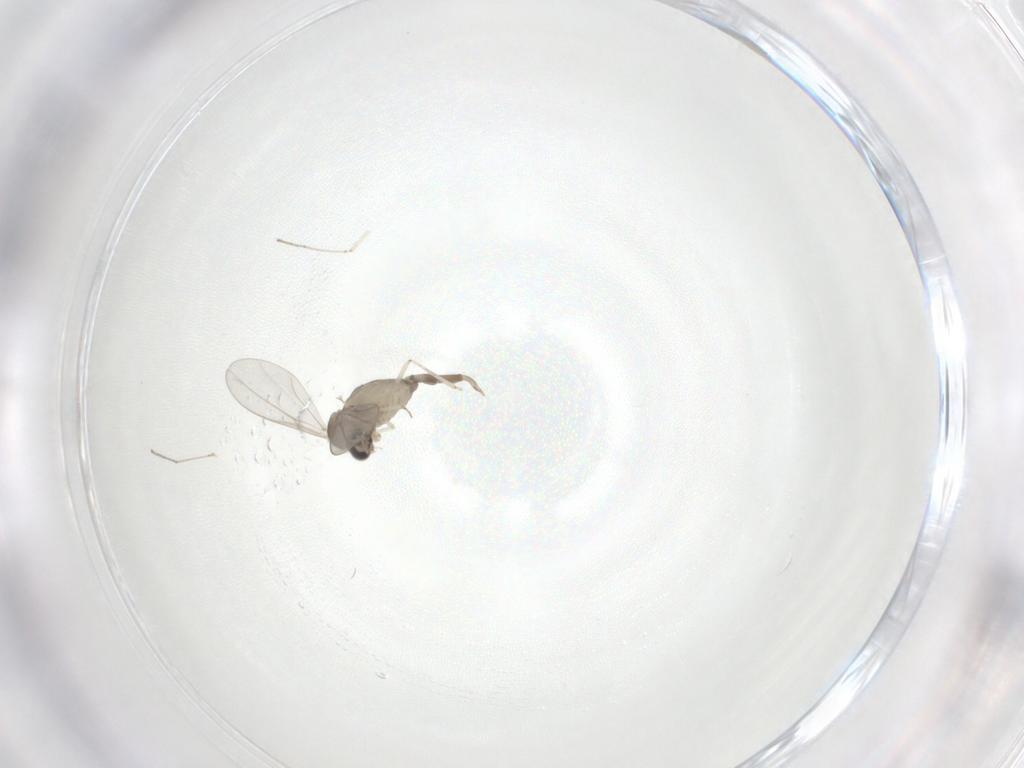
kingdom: Animalia
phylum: Arthropoda
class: Insecta
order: Diptera
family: Cecidomyiidae
